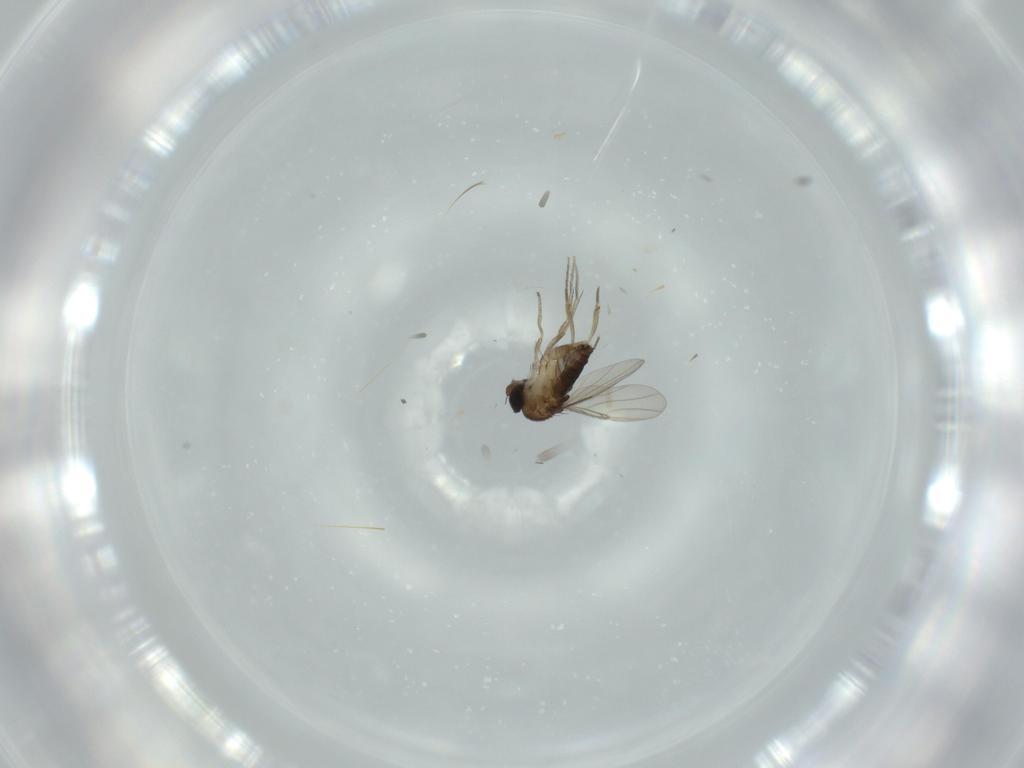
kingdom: Animalia
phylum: Arthropoda
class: Insecta
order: Diptera
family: Phoridae
